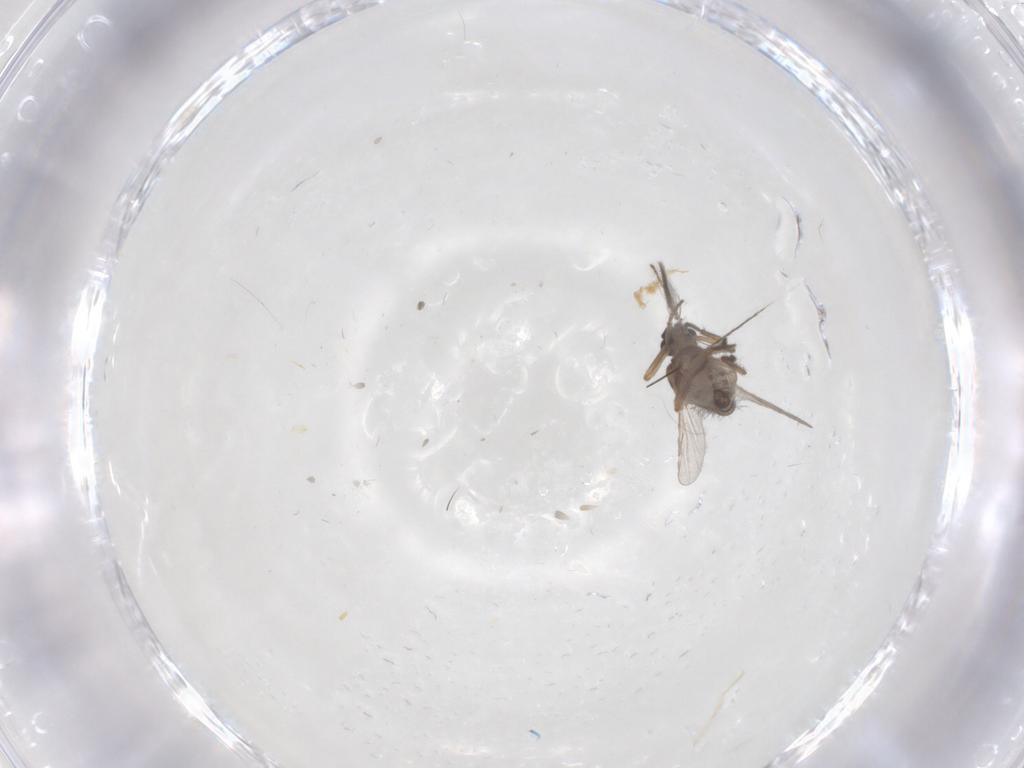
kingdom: Animalia
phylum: Arthropoda
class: Insecta
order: Diptera
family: Ceratopogonidae
